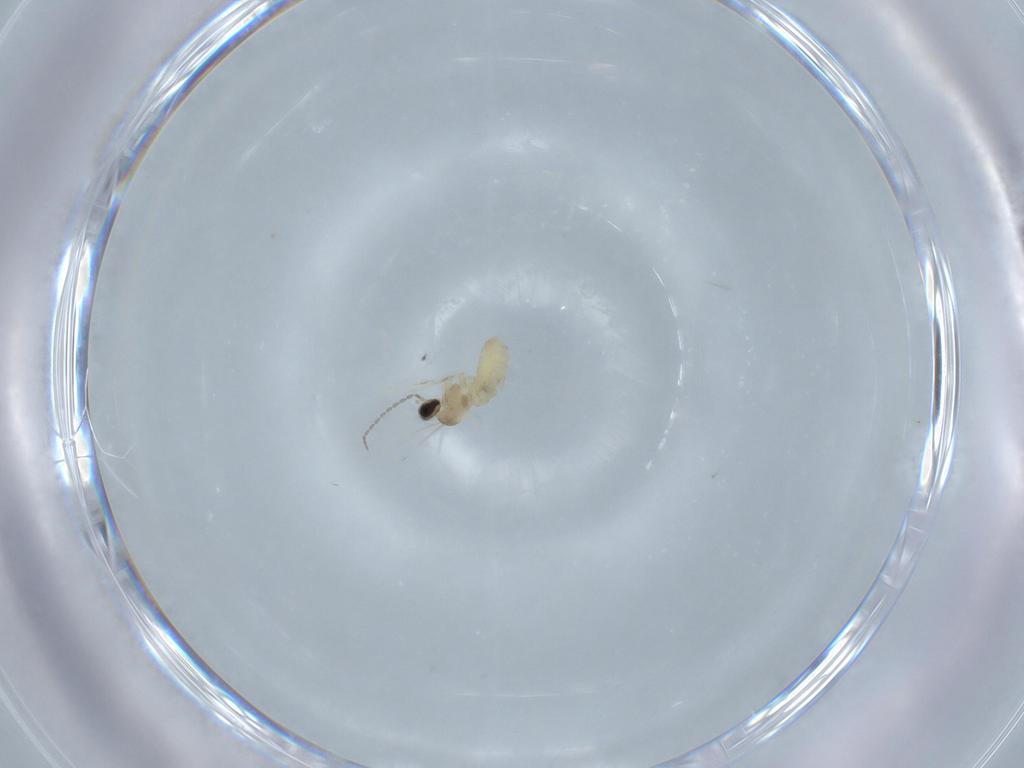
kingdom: Animalia
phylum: Arthropoda
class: Insecta
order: Diptera
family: Cecidomyiidae
